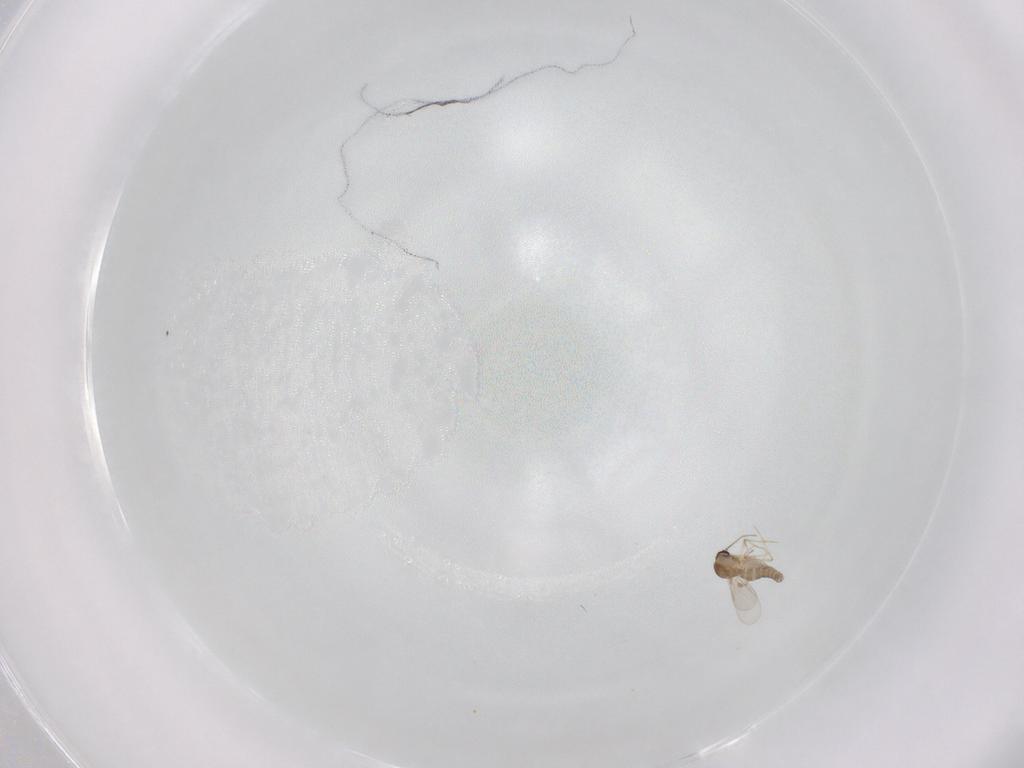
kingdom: Animalia
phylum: Arthropoda
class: Insecta
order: Diptera
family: Ceratopogonidae
